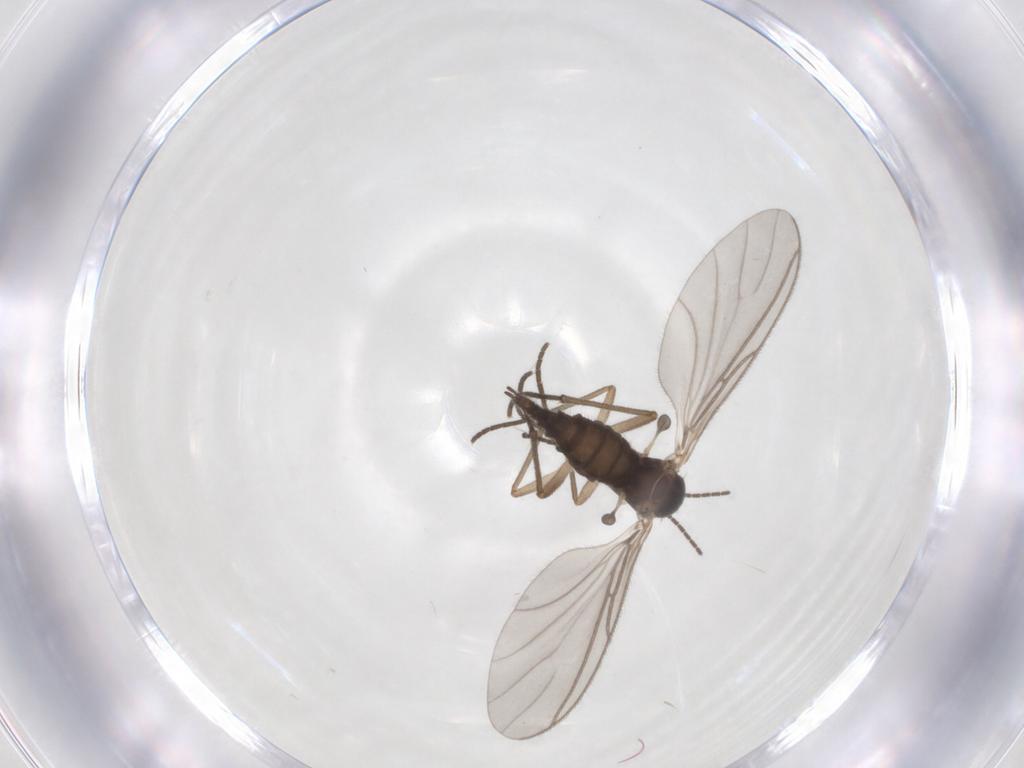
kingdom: Animalia
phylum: Arthropoda
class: Insecta
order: Diptera
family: Sciaridae
